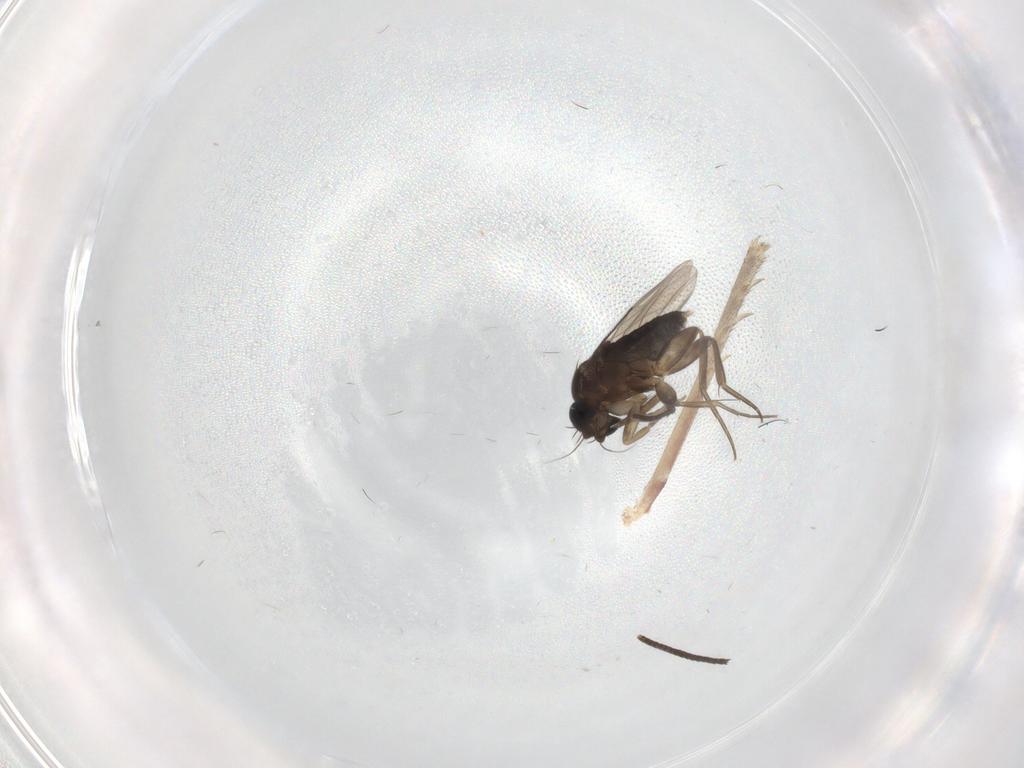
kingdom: Animalia
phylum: Arthropoda
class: Insecta
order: Diptera
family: Phoridae
